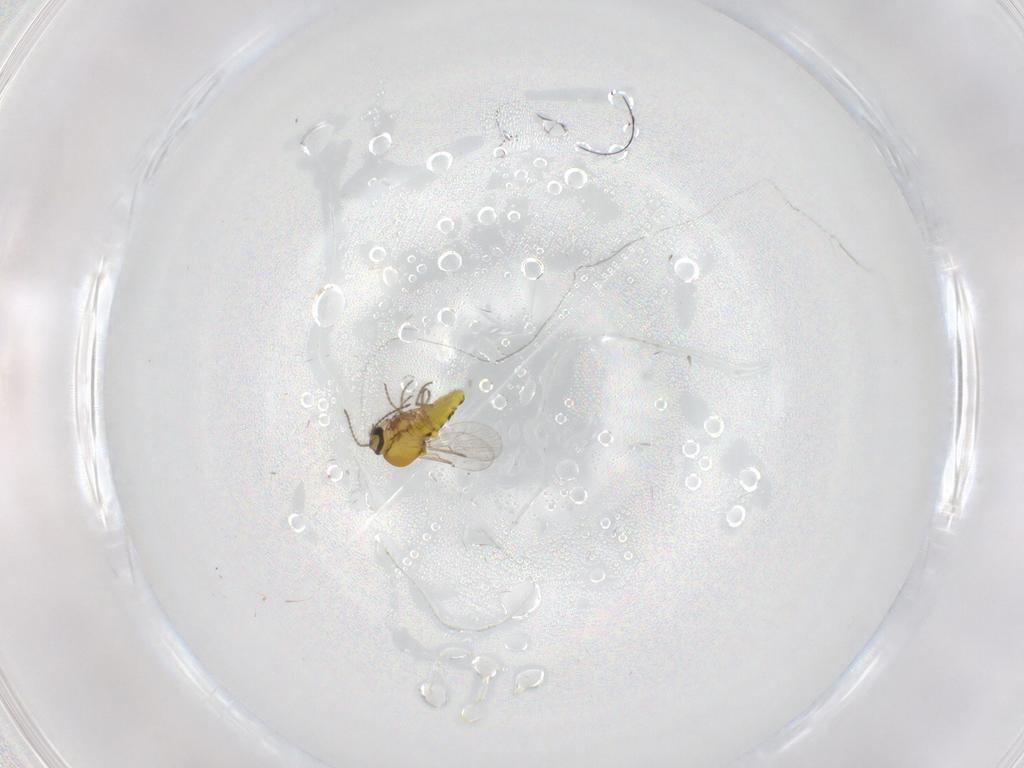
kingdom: Animalia
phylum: Arthropoda
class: Insecta
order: Diptera
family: Ceratopogonidae
